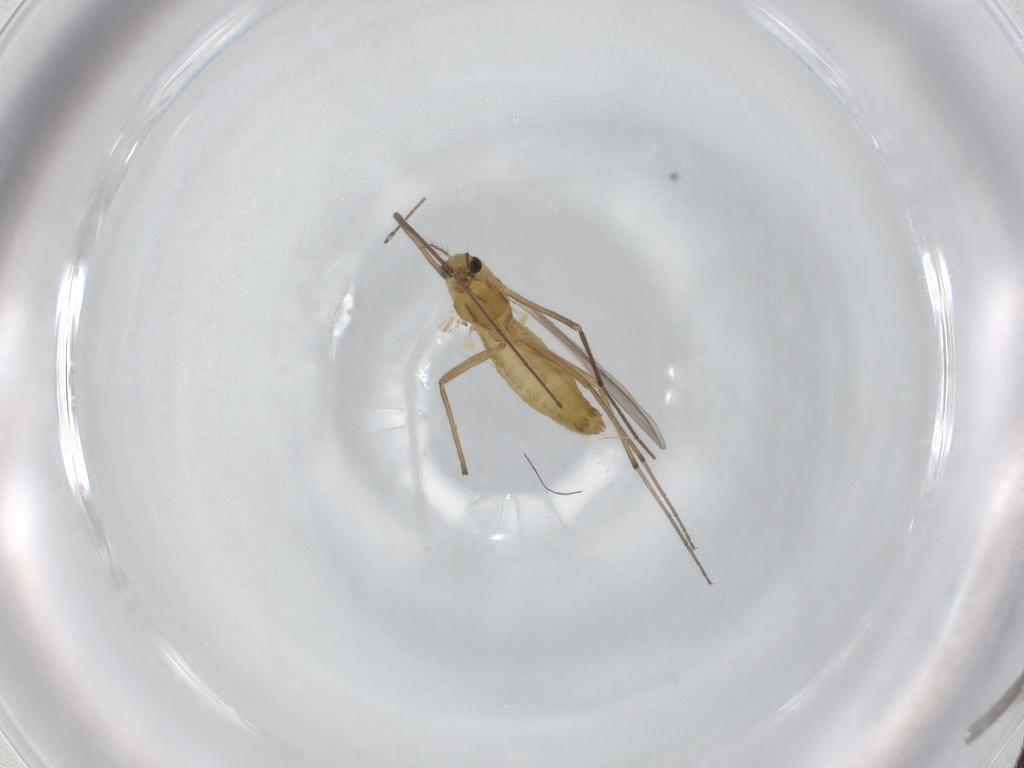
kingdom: Animalia
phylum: Arthropoda
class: Insecta
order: Diptera
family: Chironomidae
